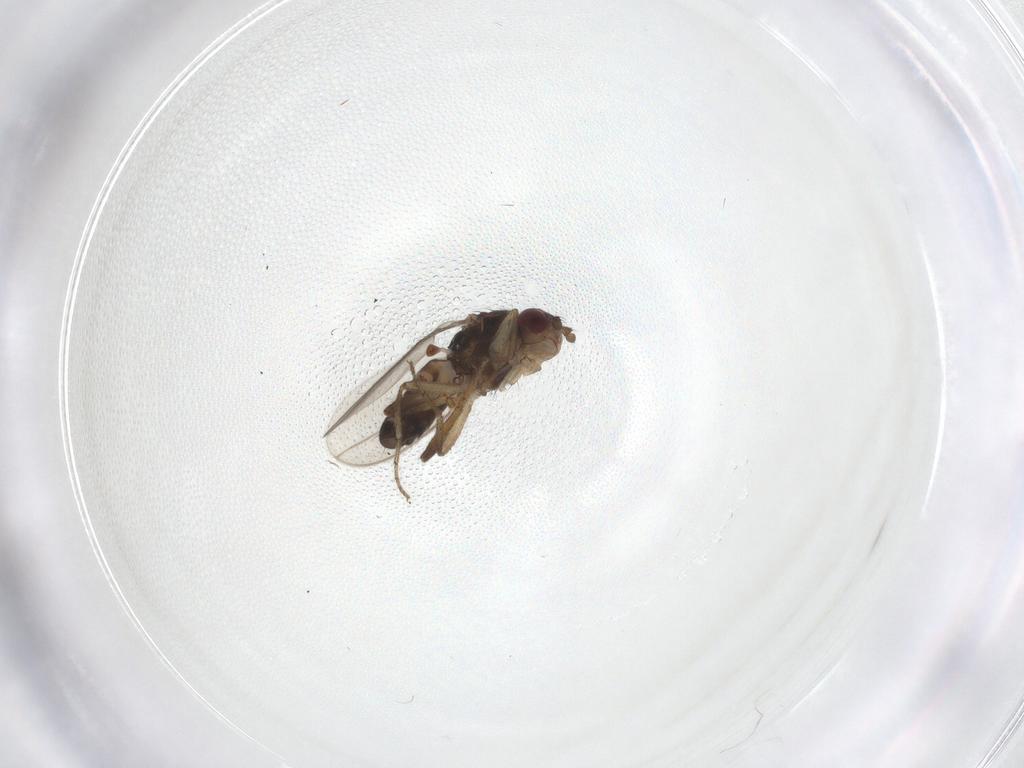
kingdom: Animalia
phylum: Arthropoda
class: Insecta
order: Diptera
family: Sphaeroceridae
